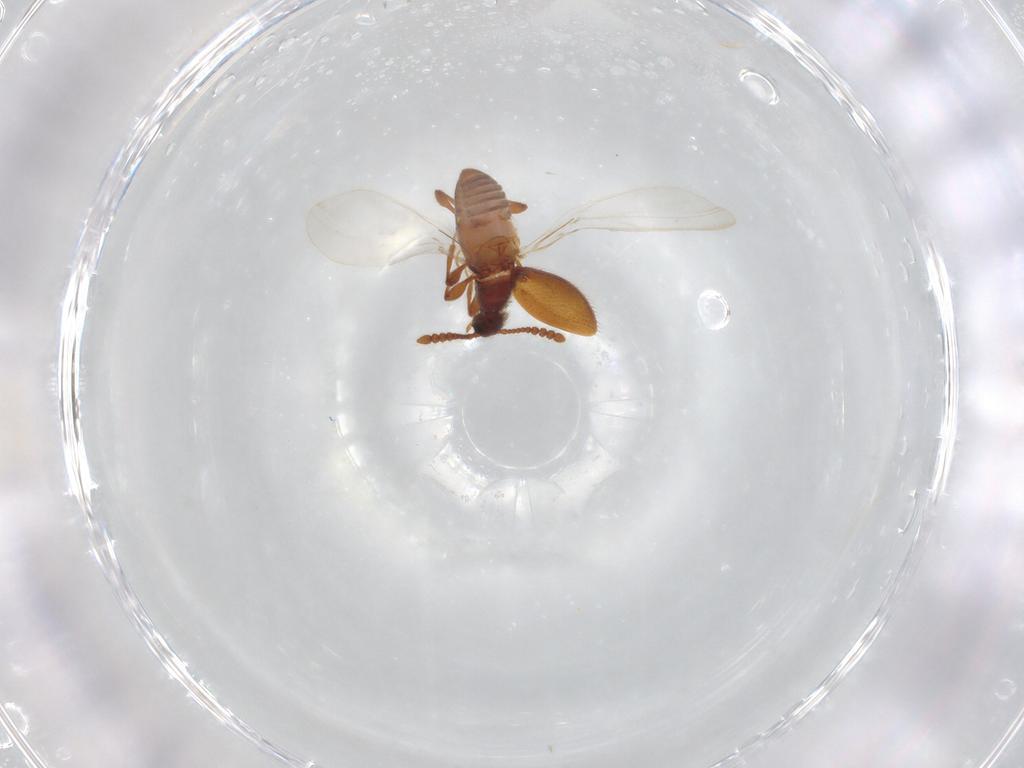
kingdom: Animalia
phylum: Arthropoda
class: Insecta
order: Coleoptera
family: Staphylinidae
